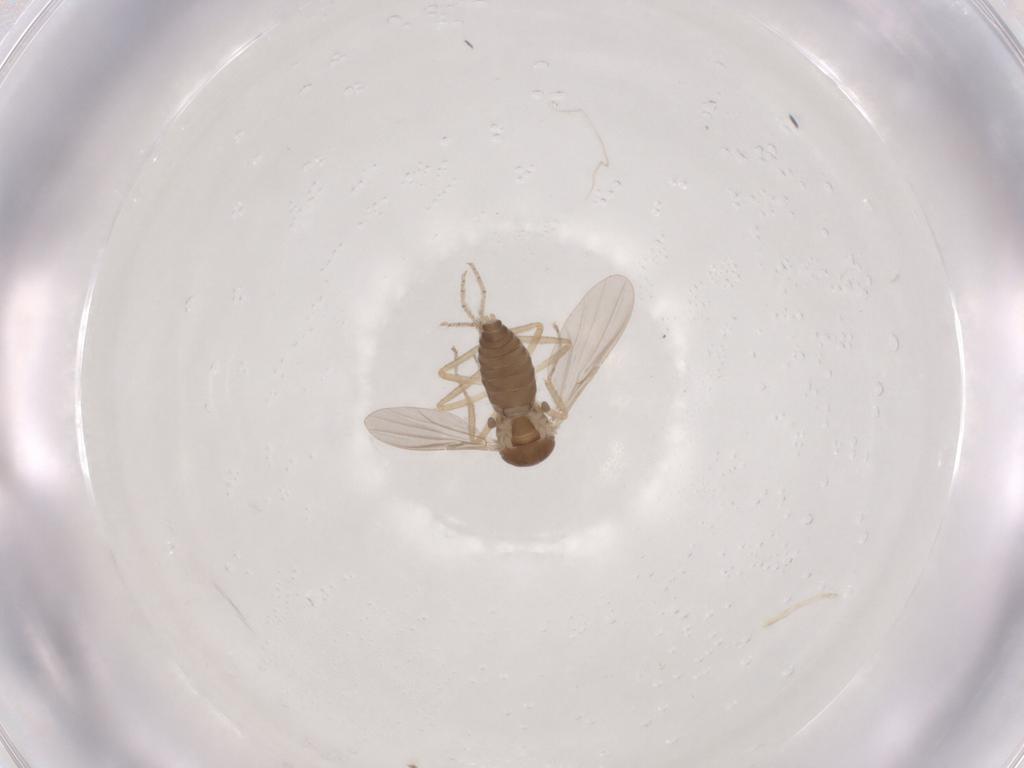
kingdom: Animalia
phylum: Arthropoda
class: Insecta
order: Diptera
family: Ceratopogonidae
